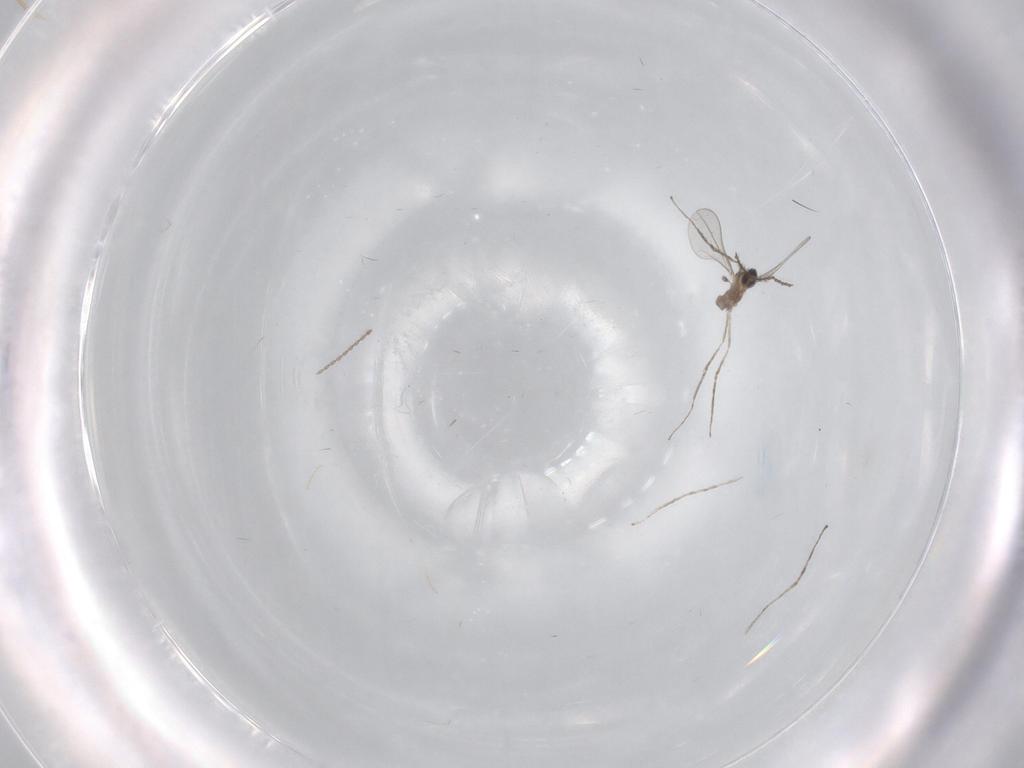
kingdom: Animalia
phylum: Arthropoda
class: Insecta
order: Diptera
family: Cecidomyiidae
